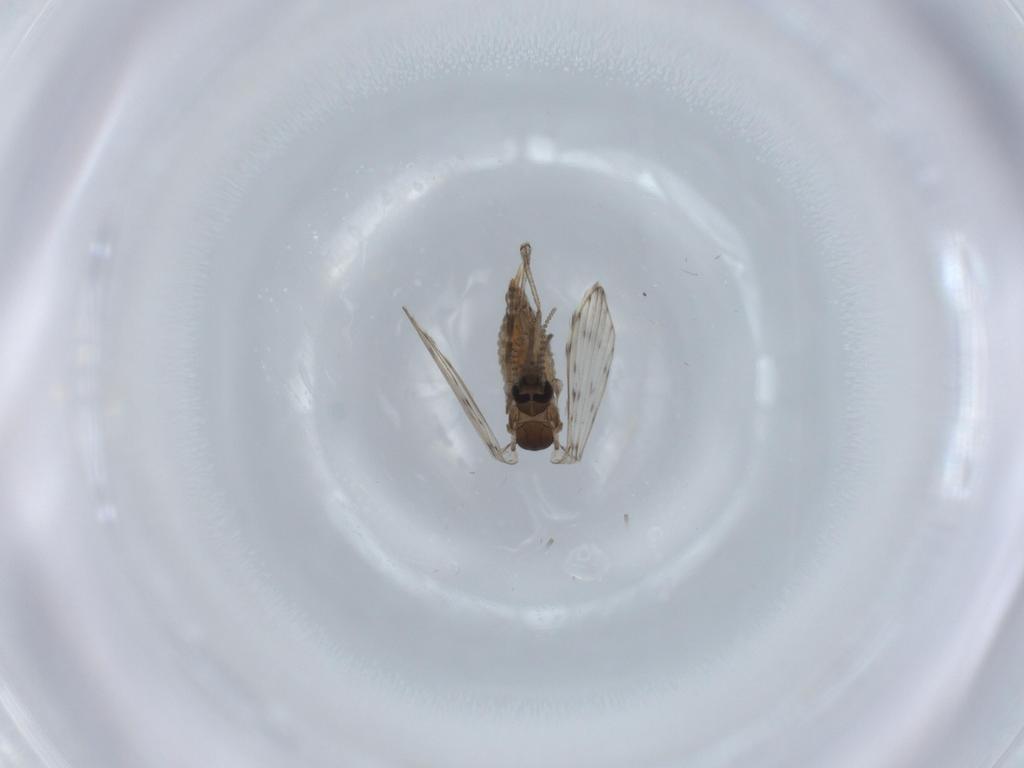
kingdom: Animalia
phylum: Arthropoda
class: Insecta
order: Diptera
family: Psychodidae
